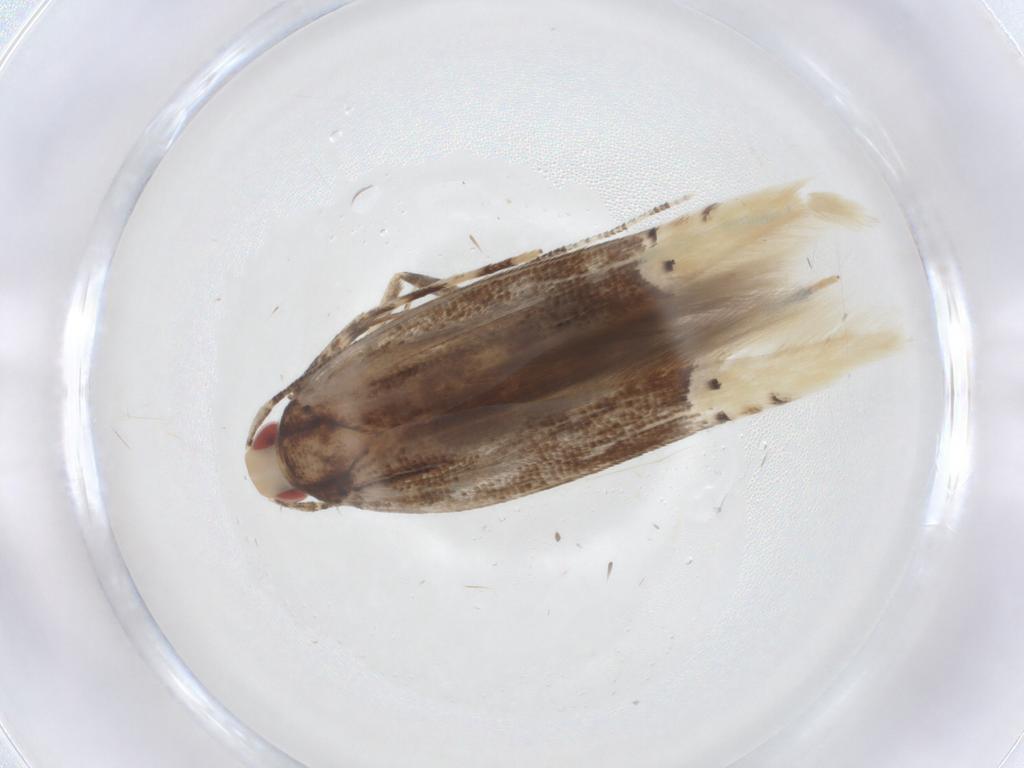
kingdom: Animalia
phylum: Arthropoda
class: Insecta
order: Lepidoptera
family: Cosmopterigidae
